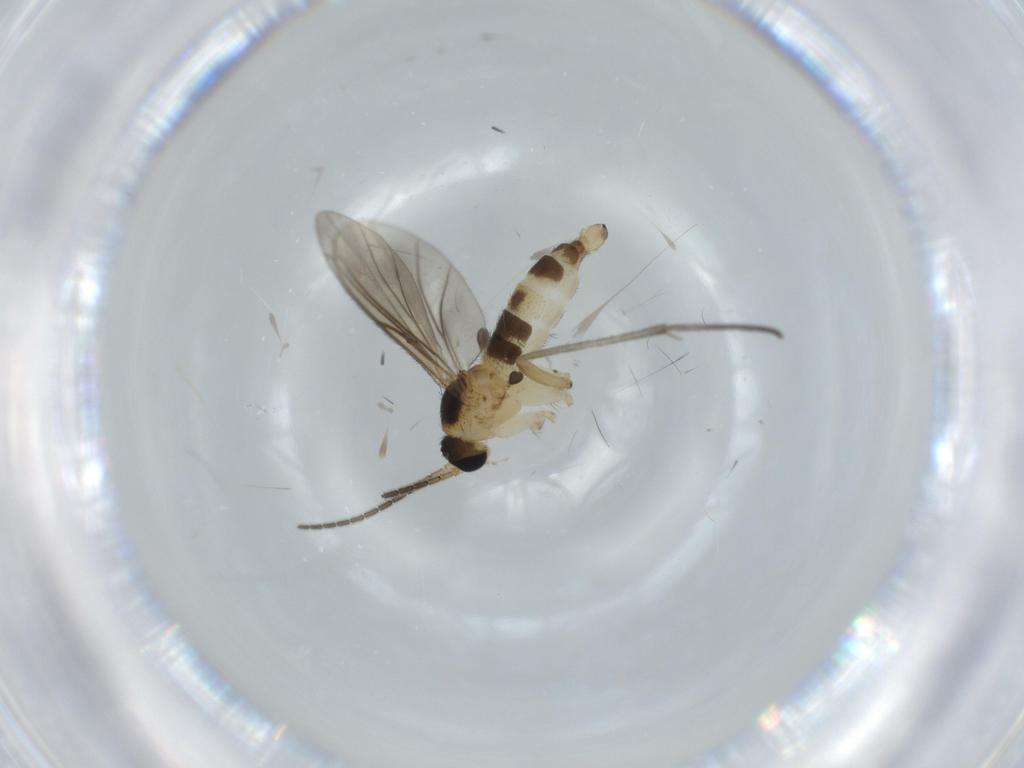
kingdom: Animalia
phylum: Arthropoda
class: Insecta
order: Diptera
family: Sciaridae
